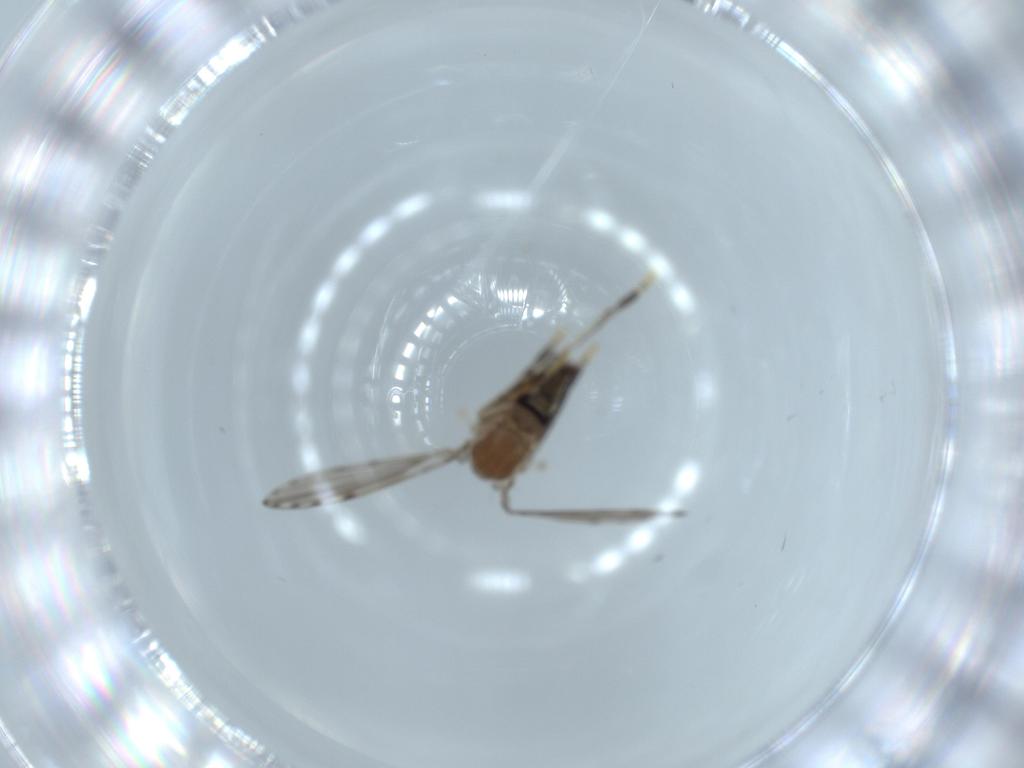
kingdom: Animalia
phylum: Arthropoda
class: Insecta
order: Diptera
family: Psychodidae
